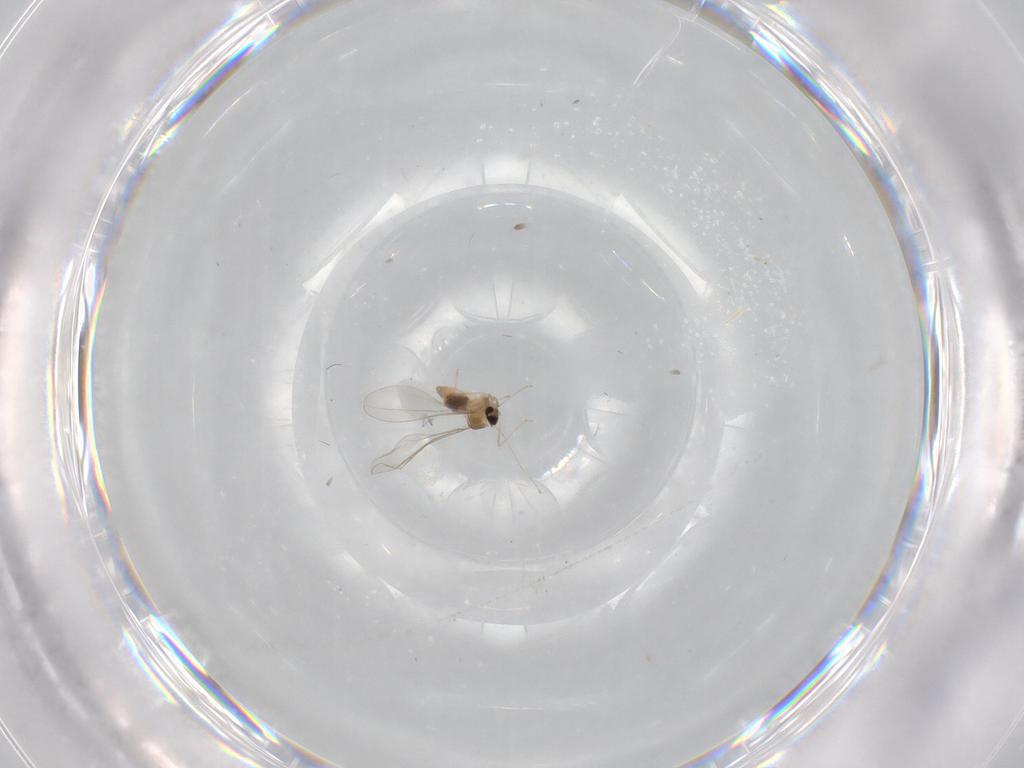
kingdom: Animalia
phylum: Arthropoda
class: Insecta
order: Diptera
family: Cecidomyiidae
